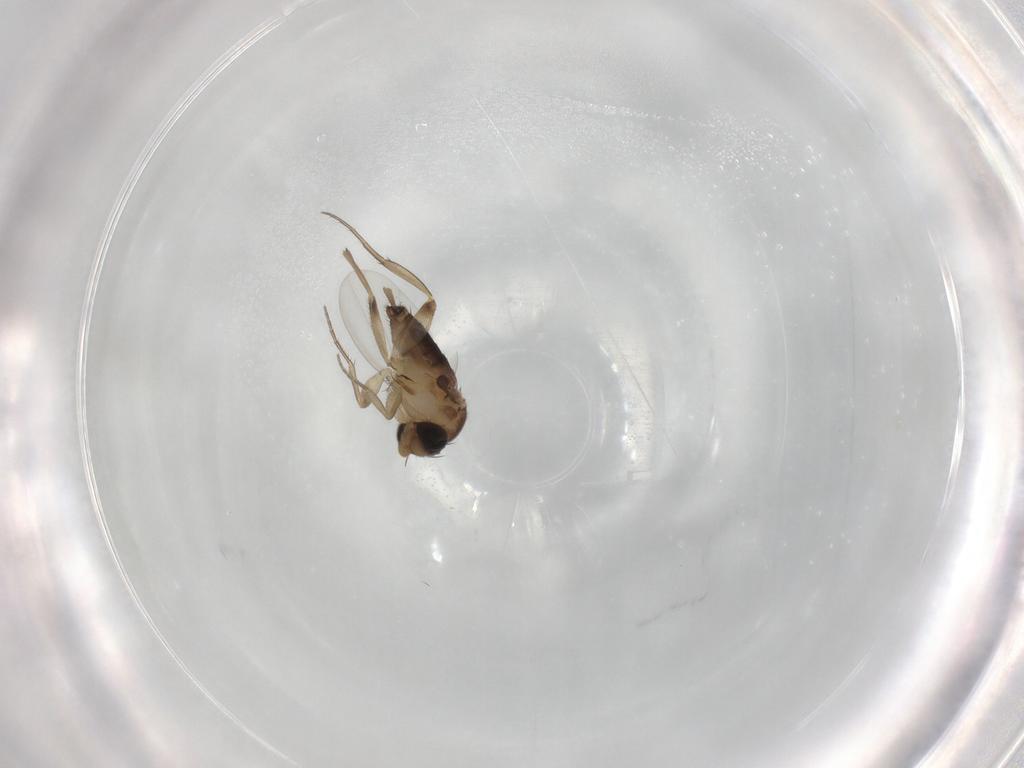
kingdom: Animalia
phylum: Arthropoda
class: Insecta
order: Diptera
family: Phoridae
